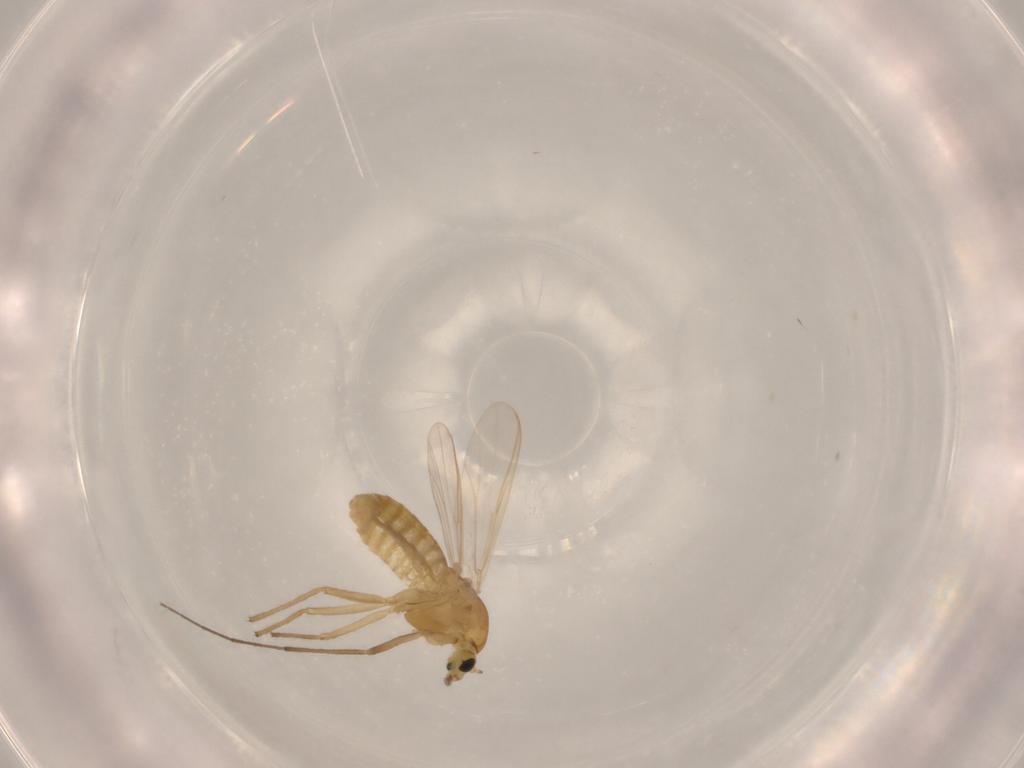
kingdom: Animalia
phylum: Arthropoda
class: Insecta
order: Diptera
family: Chironomidae
